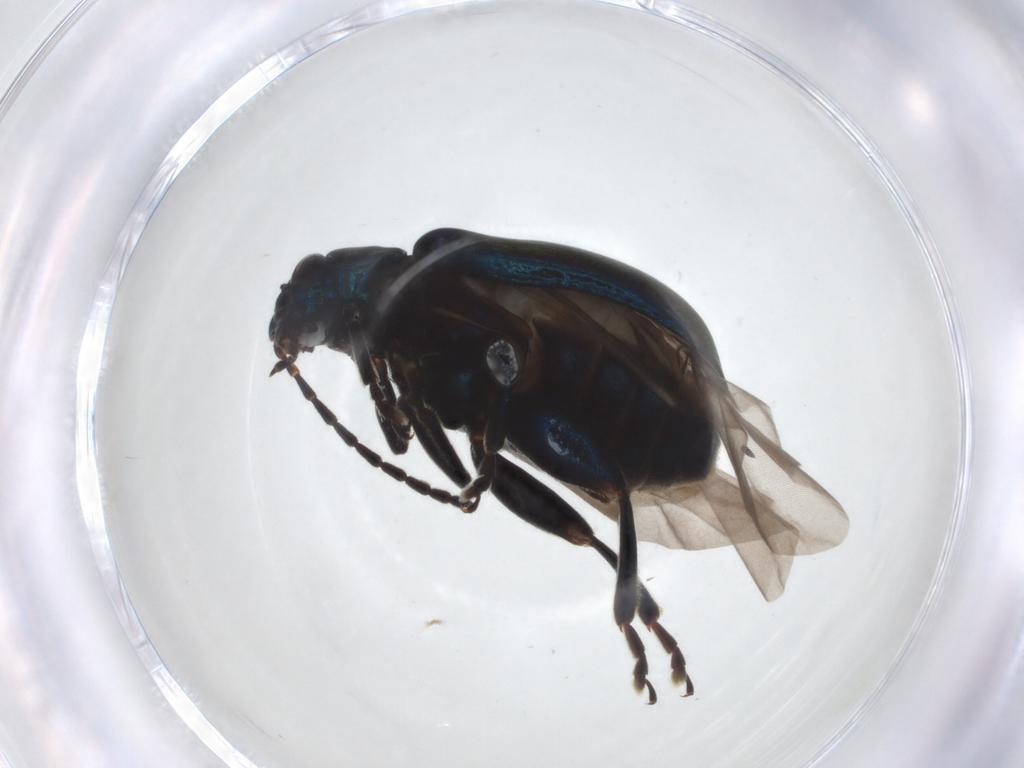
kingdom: Animalia
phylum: Arthropoda
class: Insecta
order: Coleoptera
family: Chrysomelidae
